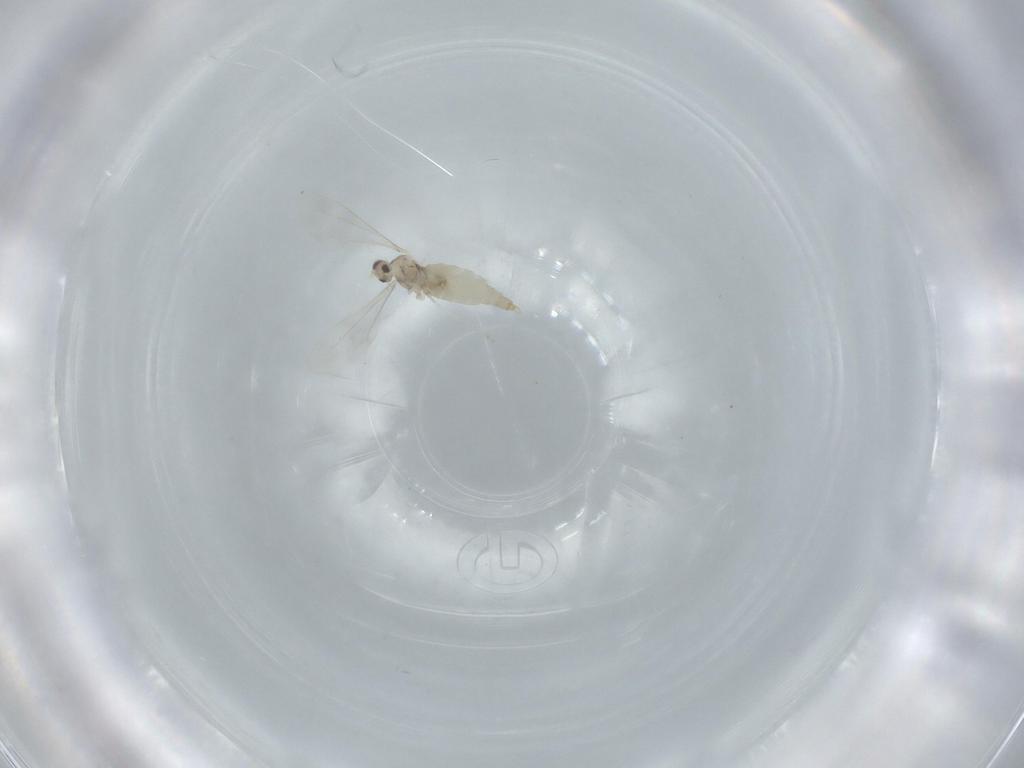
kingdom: Animalia
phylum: Arthropoda
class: Insecta
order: Diptera
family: Cecidomyiidae
